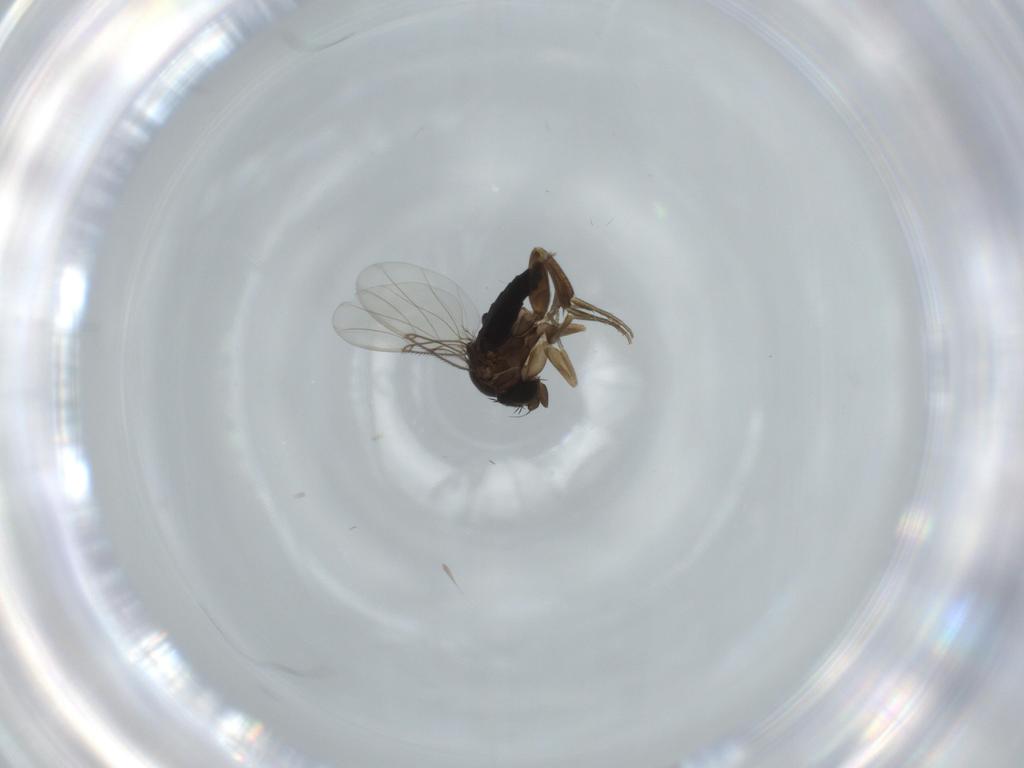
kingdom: Animalia
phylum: Arthropoda
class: Insecta
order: Diptera
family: Phoridae
